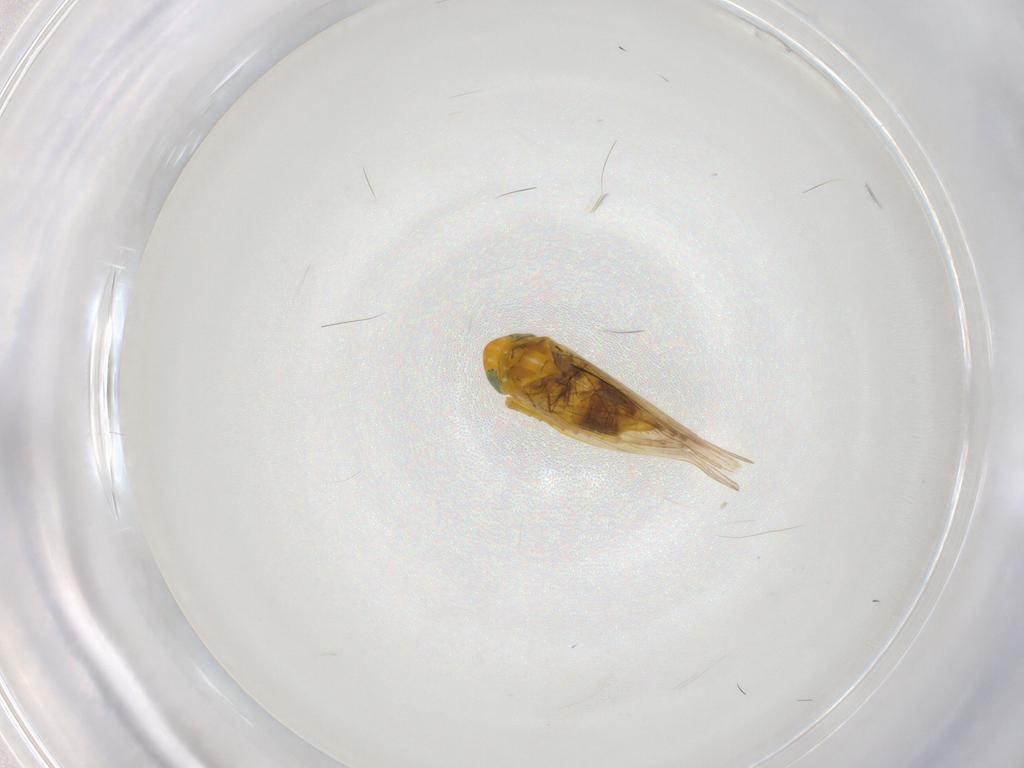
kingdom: Animalia
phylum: Arthropoda
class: Insecta
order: Hemiptera
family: Cicadellidae
